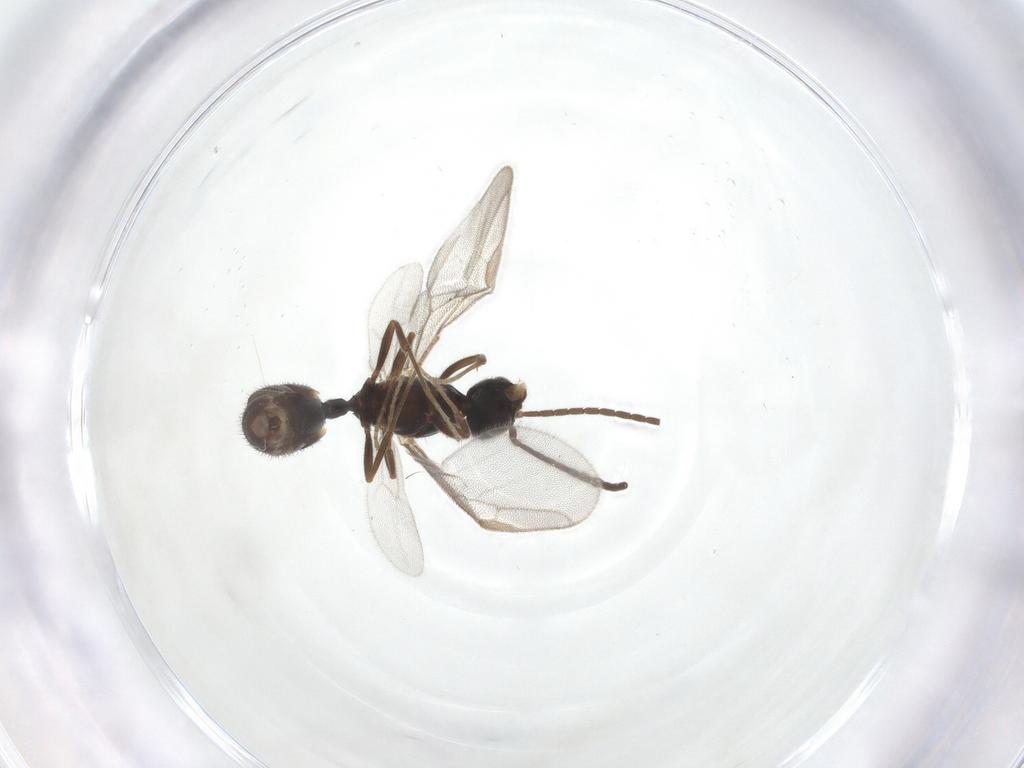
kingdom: Animalia
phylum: Arthropoda
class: Insecta
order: Hymenoptera
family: Formicidae
